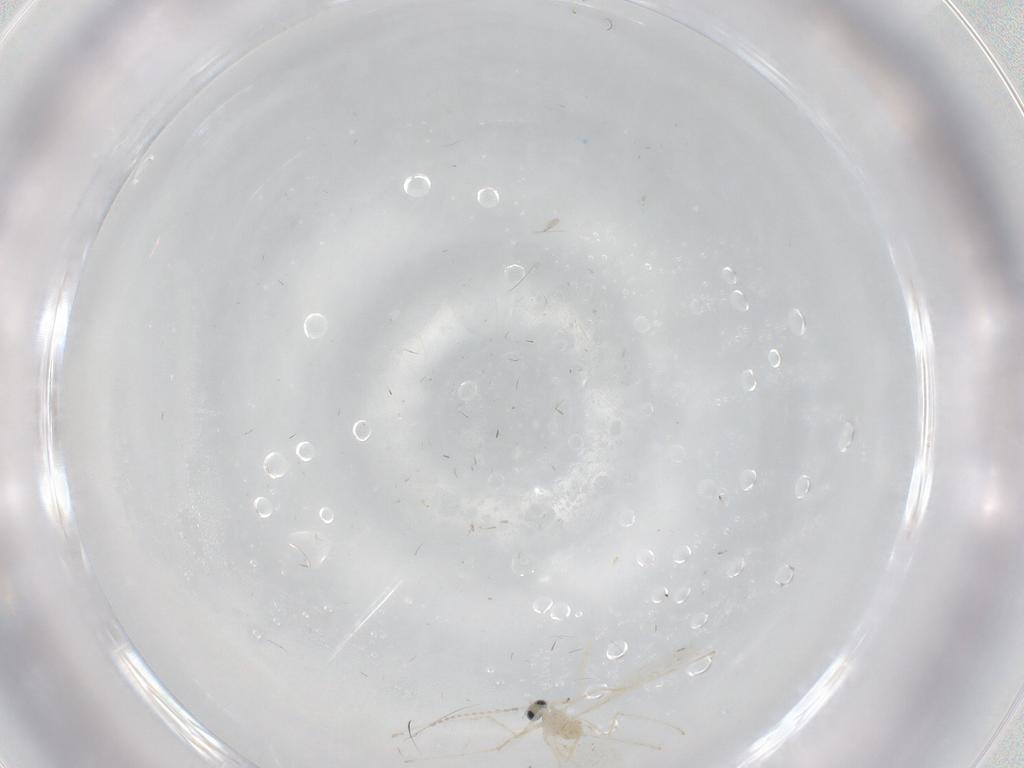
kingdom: Animalia
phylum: Arthropoda
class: Insecta
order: Diptera
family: Cecidomyiidae
